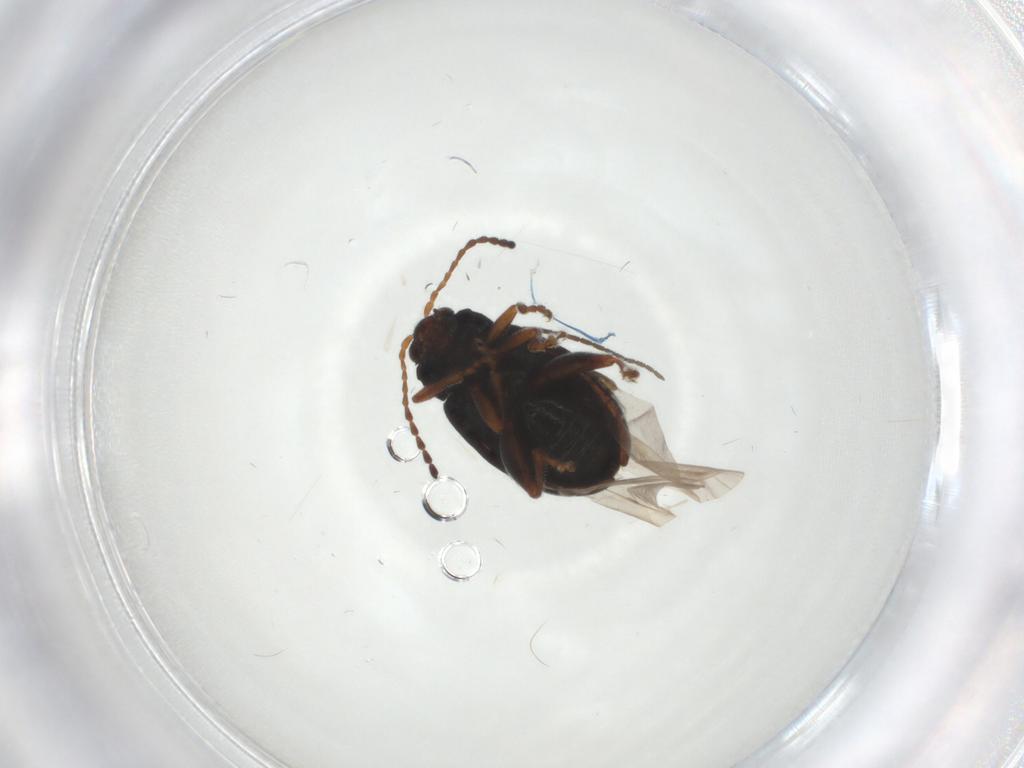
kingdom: Animalia
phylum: Arthropoda
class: Insecta
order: Coleoptera
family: Chrysomelidae
